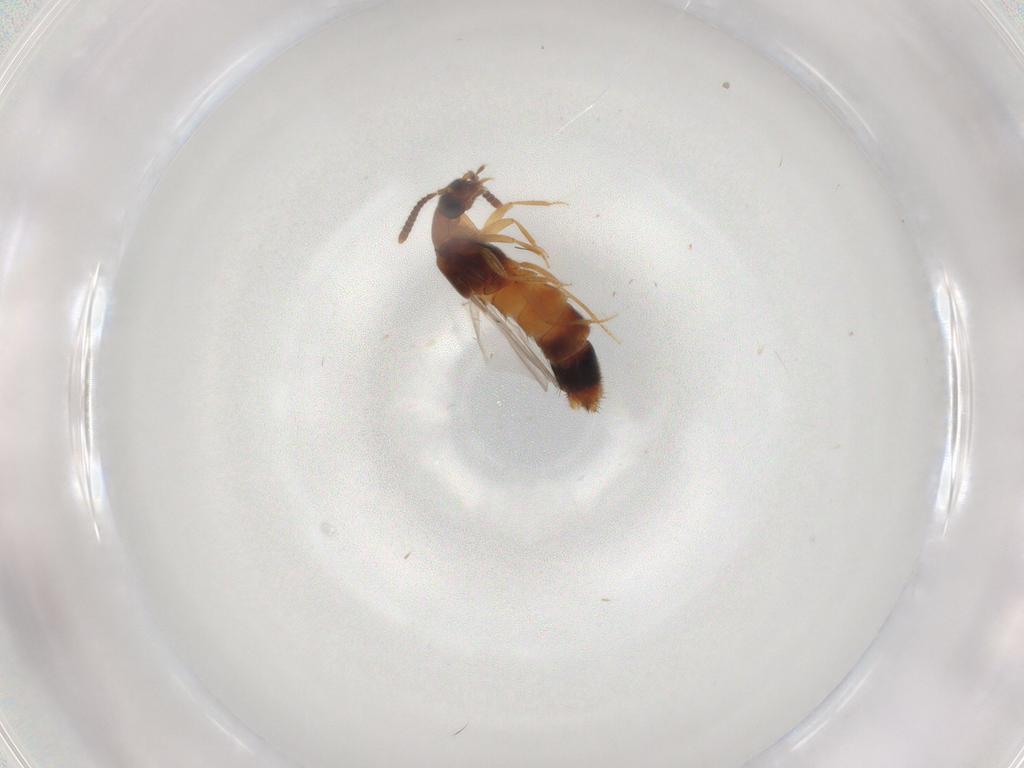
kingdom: Animalia
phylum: Arthropoda
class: Insecta
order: Coleoptera
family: Staphylinidae
